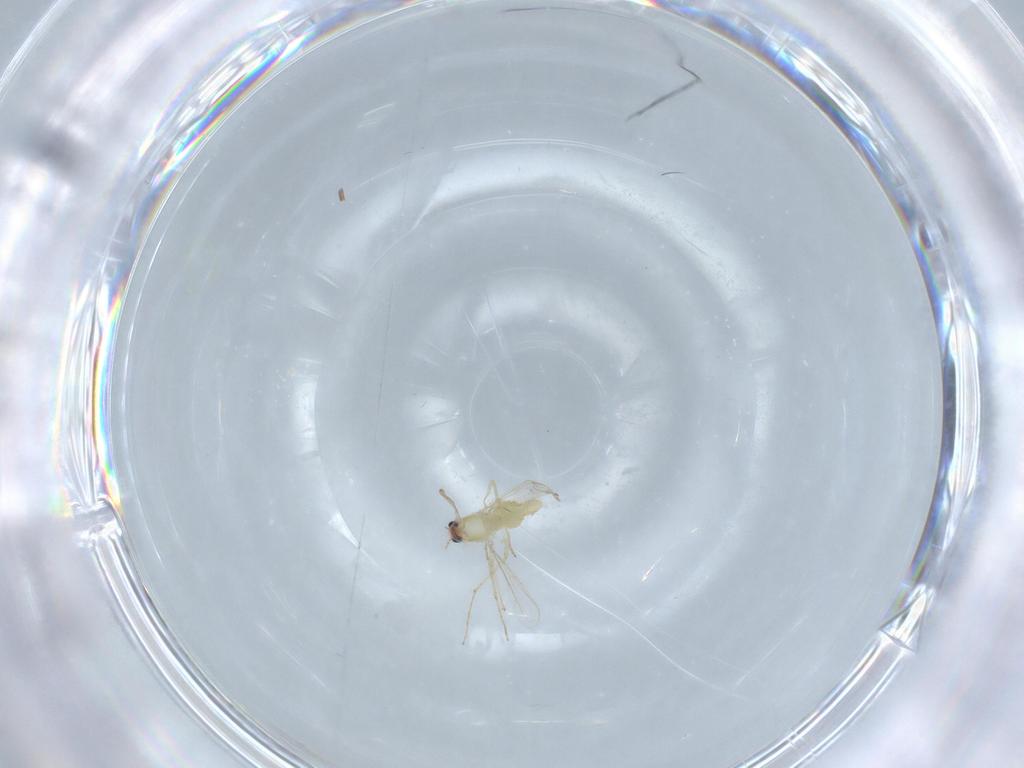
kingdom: Animalia
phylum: Arthropoda
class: Insecta
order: Diptera
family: Chironomidae
